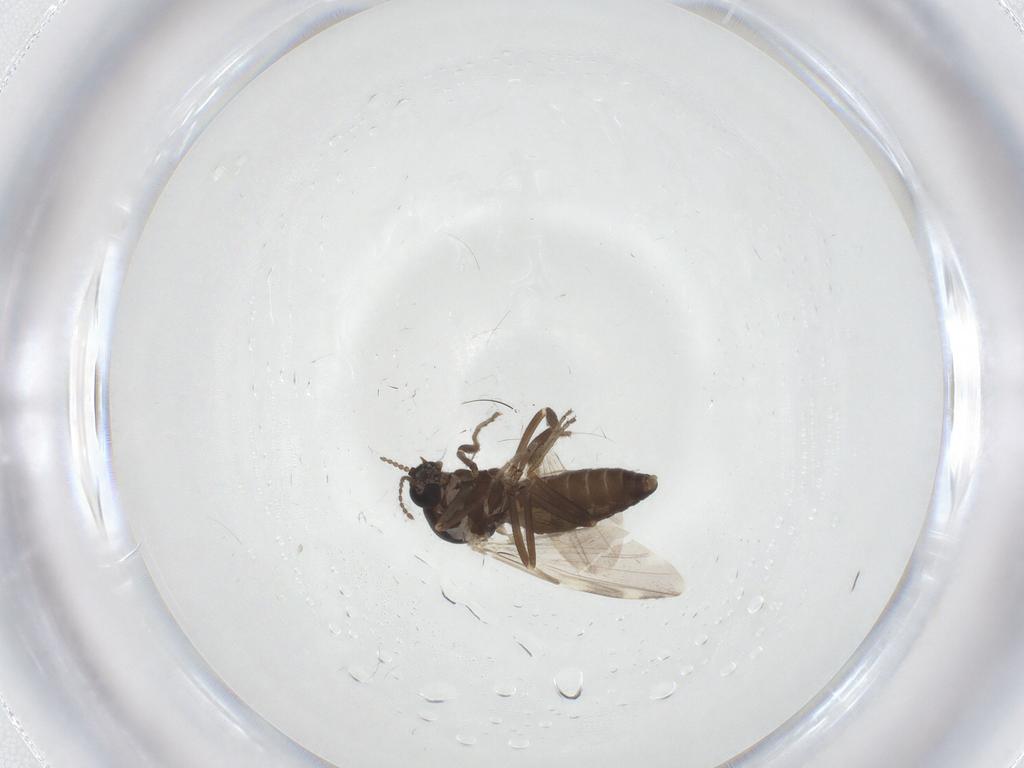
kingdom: Animalia
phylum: Arthropoda
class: Insecta
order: Diptera
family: Ceratopogonidae
